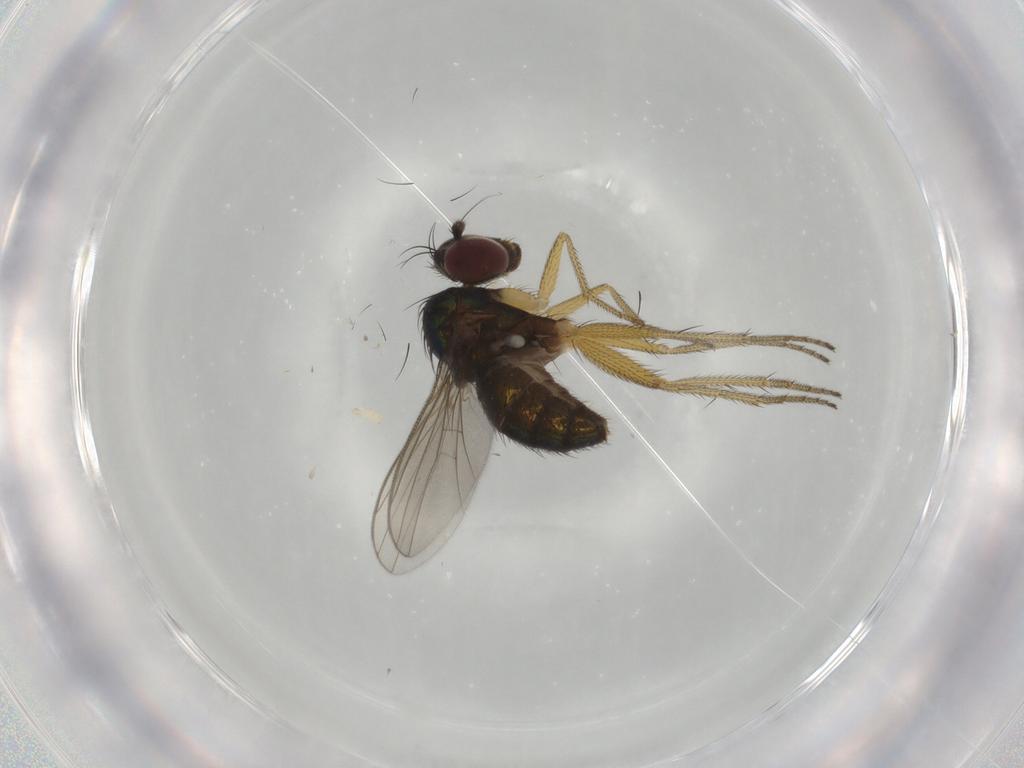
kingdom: Animalia
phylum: Arthropoda
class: Insecta
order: Diptera
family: Dolichopodidae
